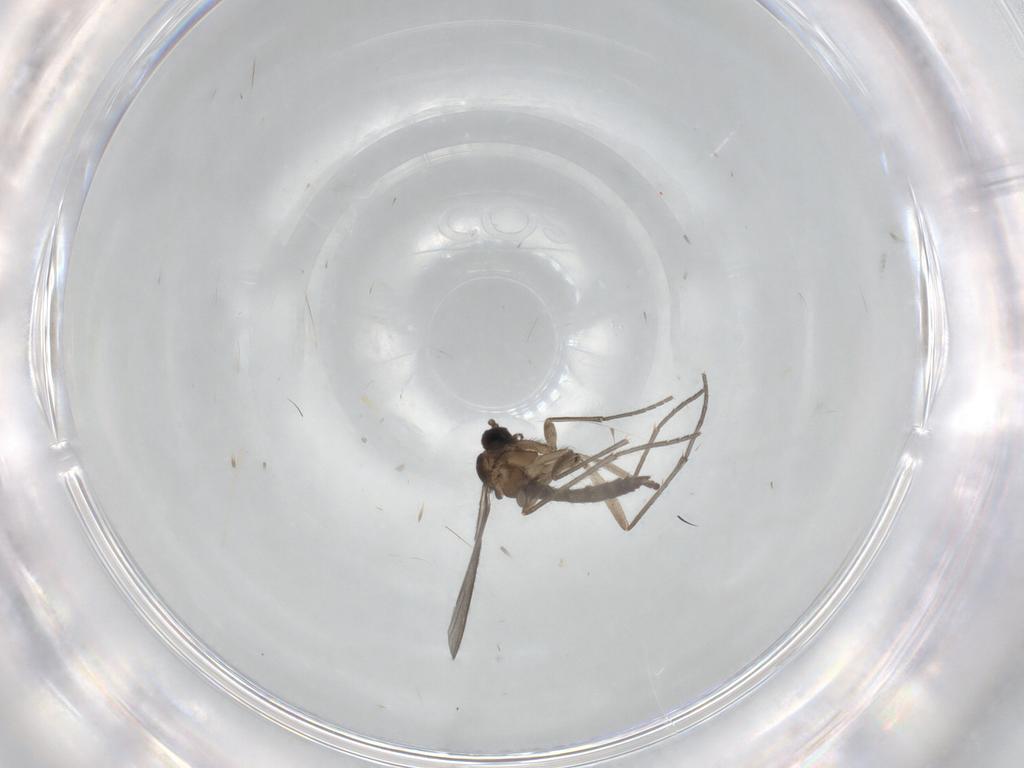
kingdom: Animalia
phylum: Arthropoda
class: Insecta
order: Diptera
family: Sciaridae
